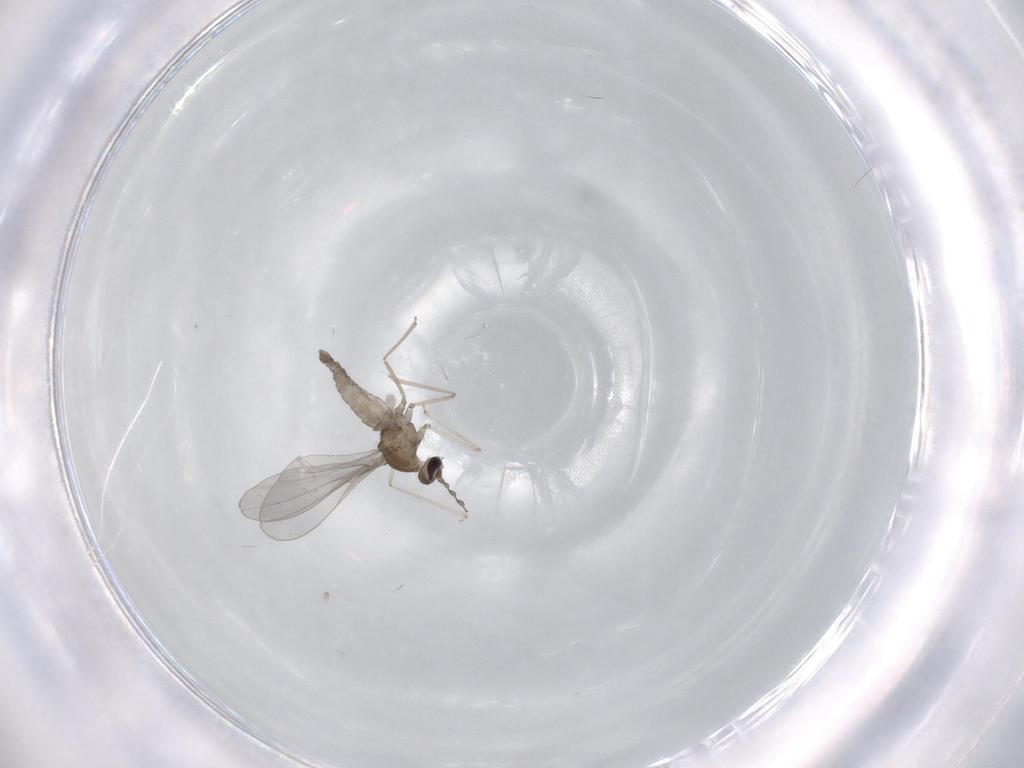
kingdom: Animalia
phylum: Arthropoda
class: Insecta
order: Diptera
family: Cecidomyiidae
